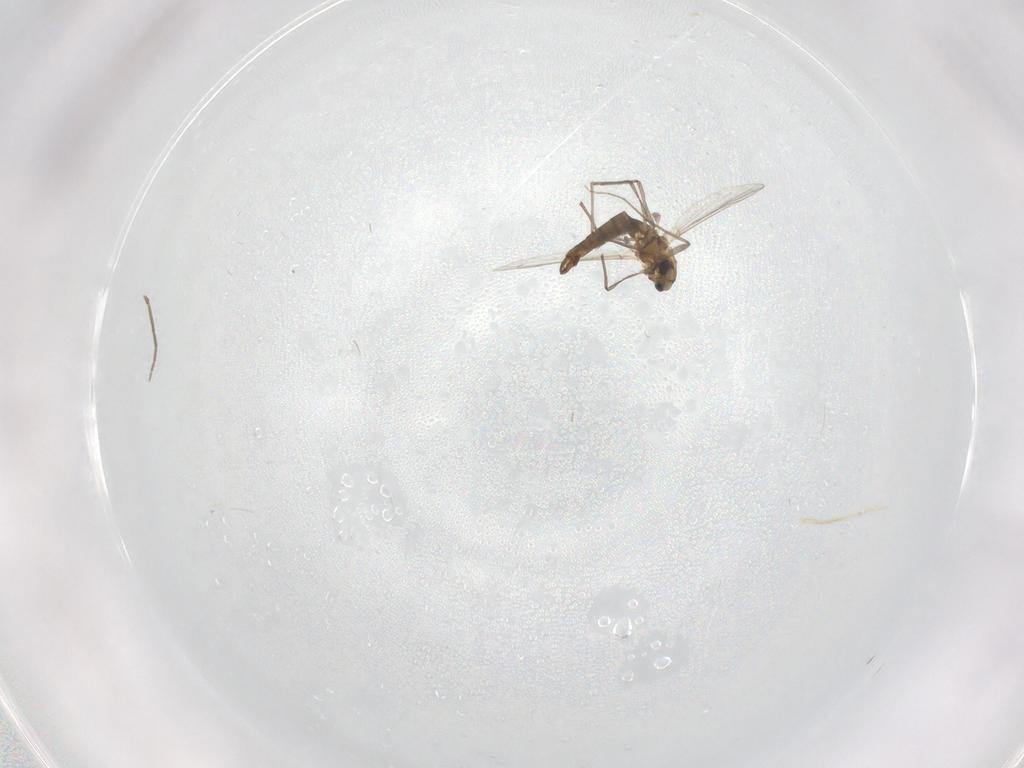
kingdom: Animalia
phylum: Arthropoda
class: Insecta
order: Diptera
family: Chironomidae
